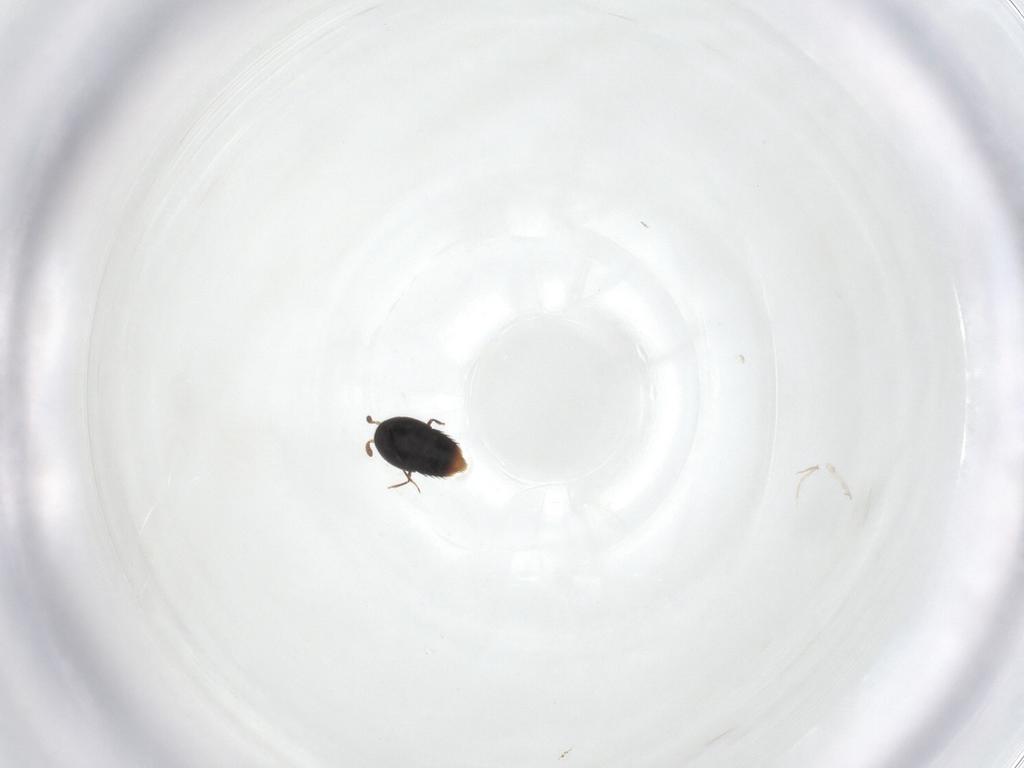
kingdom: Animalia
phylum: Arthropoda
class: Insecta
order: Coleoptera
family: Staphylinidae
